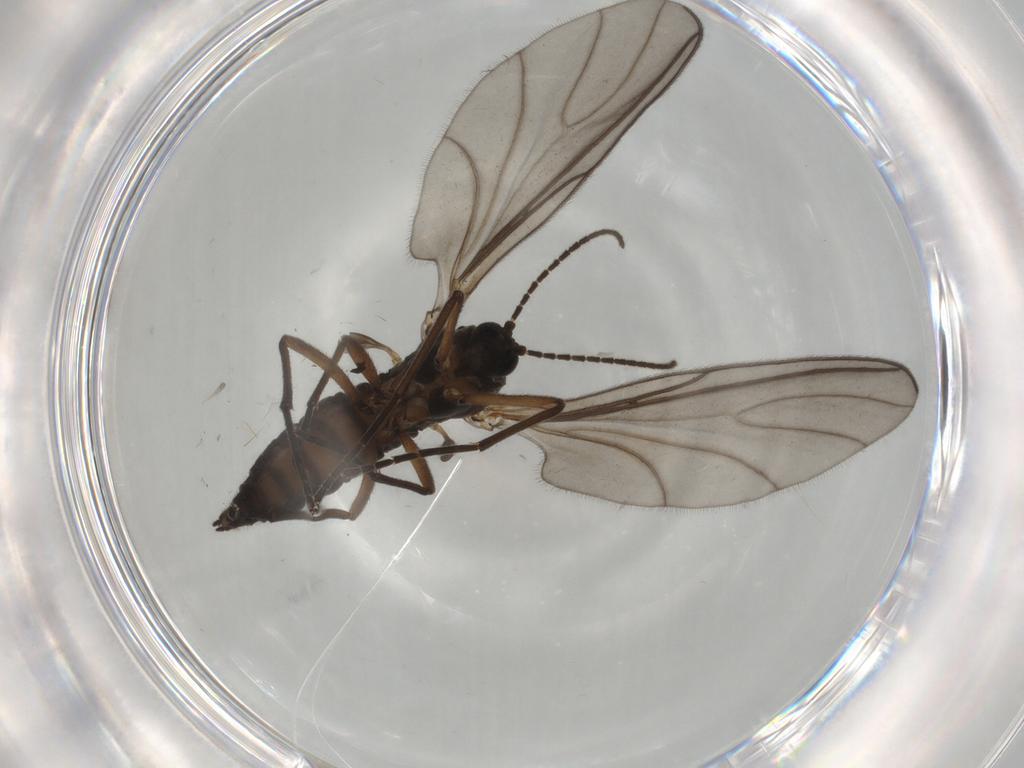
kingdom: Animalia
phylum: Arthropoda
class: Insecta
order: Diptera
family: Sciaridae
